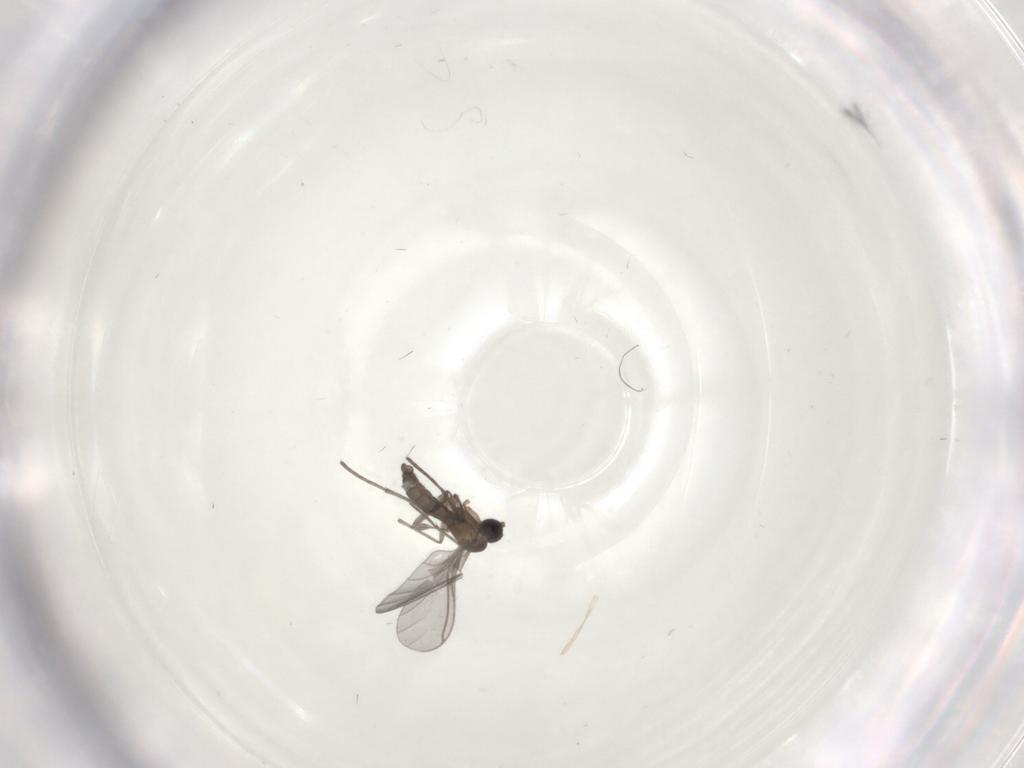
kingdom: Animalia
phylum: Arthropoda
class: Insecta
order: Diptera
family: Sciaridae
